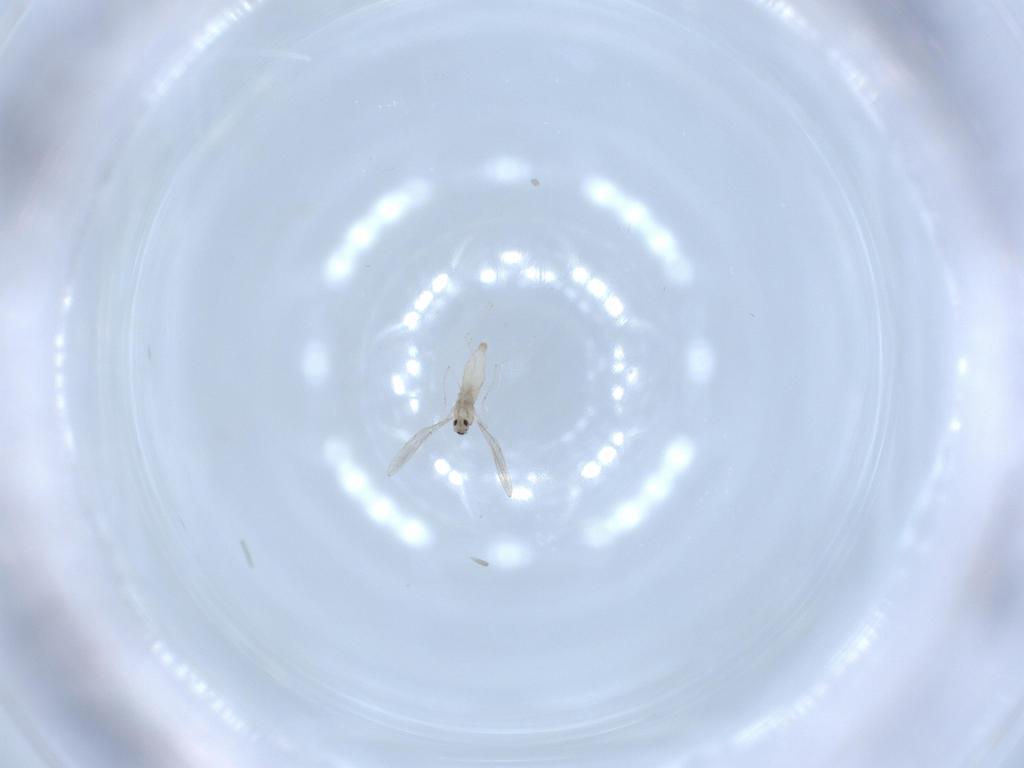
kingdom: Animalia
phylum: Arthropoda
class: Insecta
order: Diptera
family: Cecidomyiidae
